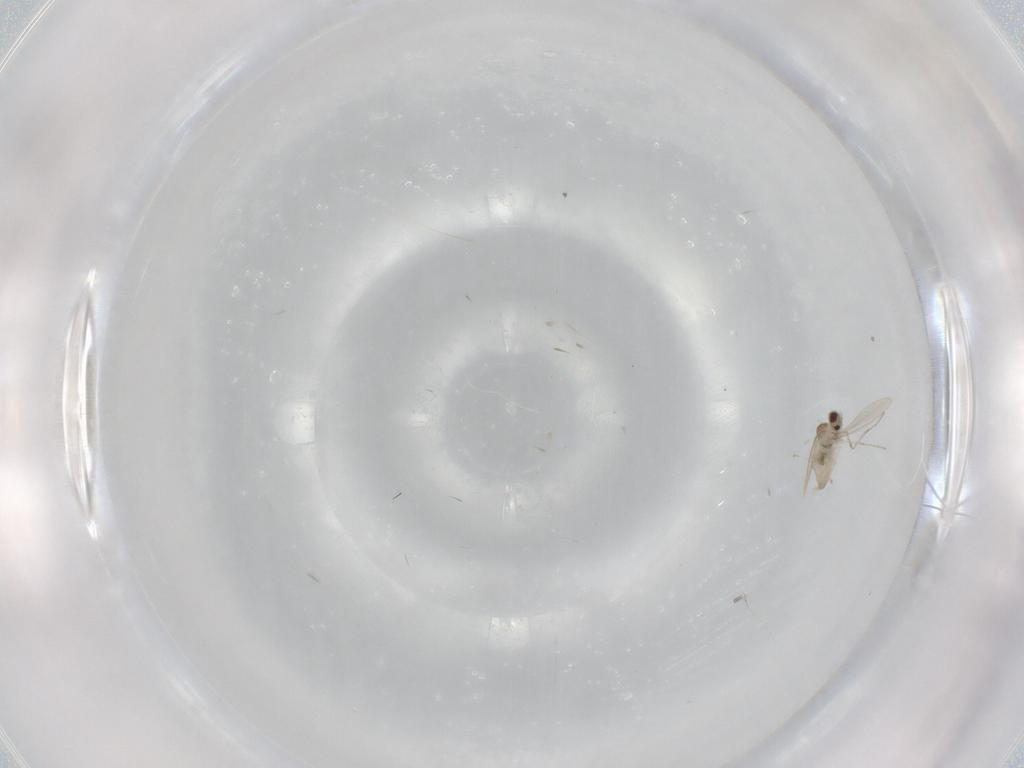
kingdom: Animalia
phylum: Arthropoda
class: Insecta
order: Diptera
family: Cecidomyiidae
